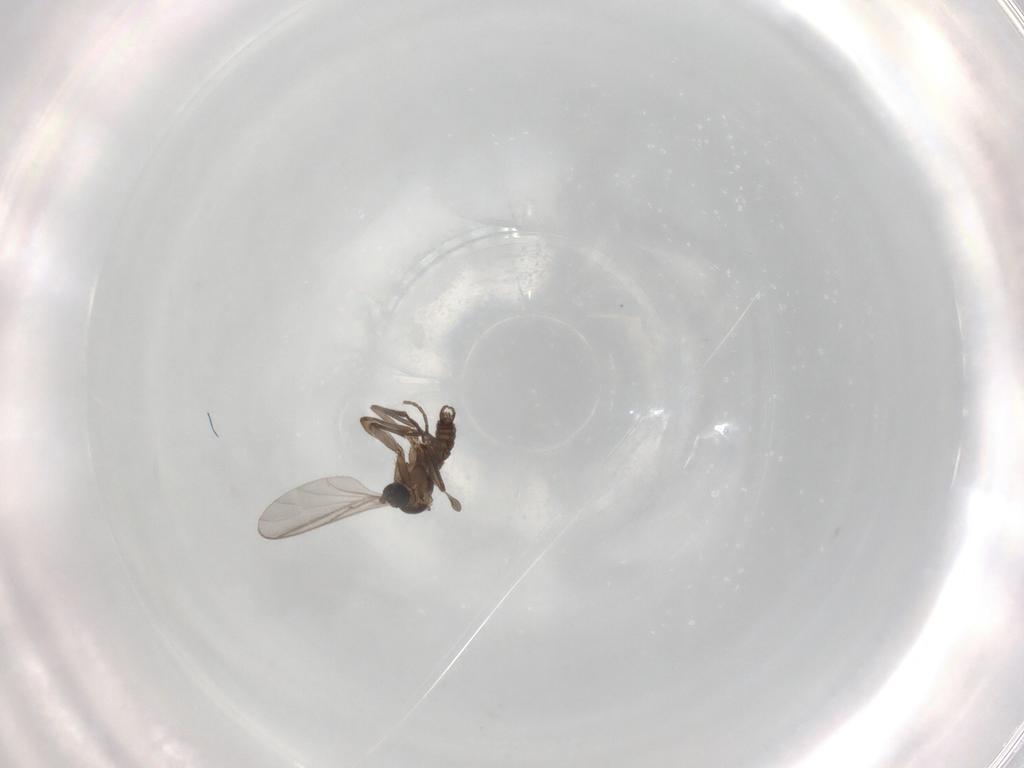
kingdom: Animalia
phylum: Arthropoda
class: Insecta
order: Diptera
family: Sciaridae
